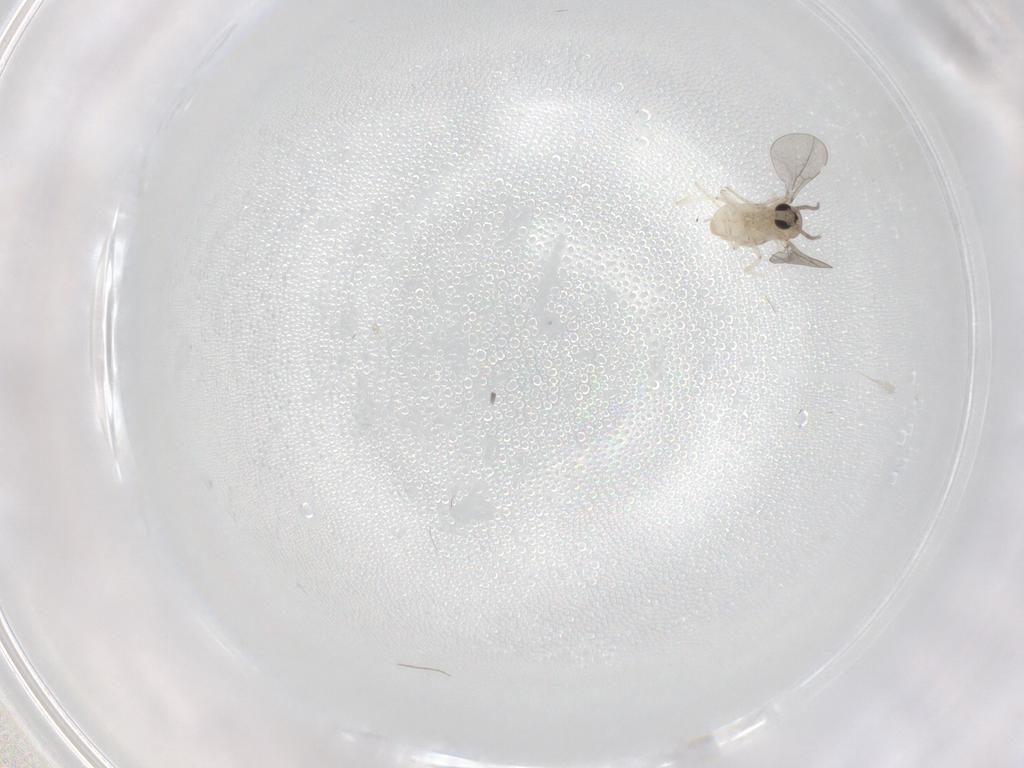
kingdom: Animalia
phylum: Arthropoda
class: Insecta
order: Diptera
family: Cecidomyiidae
